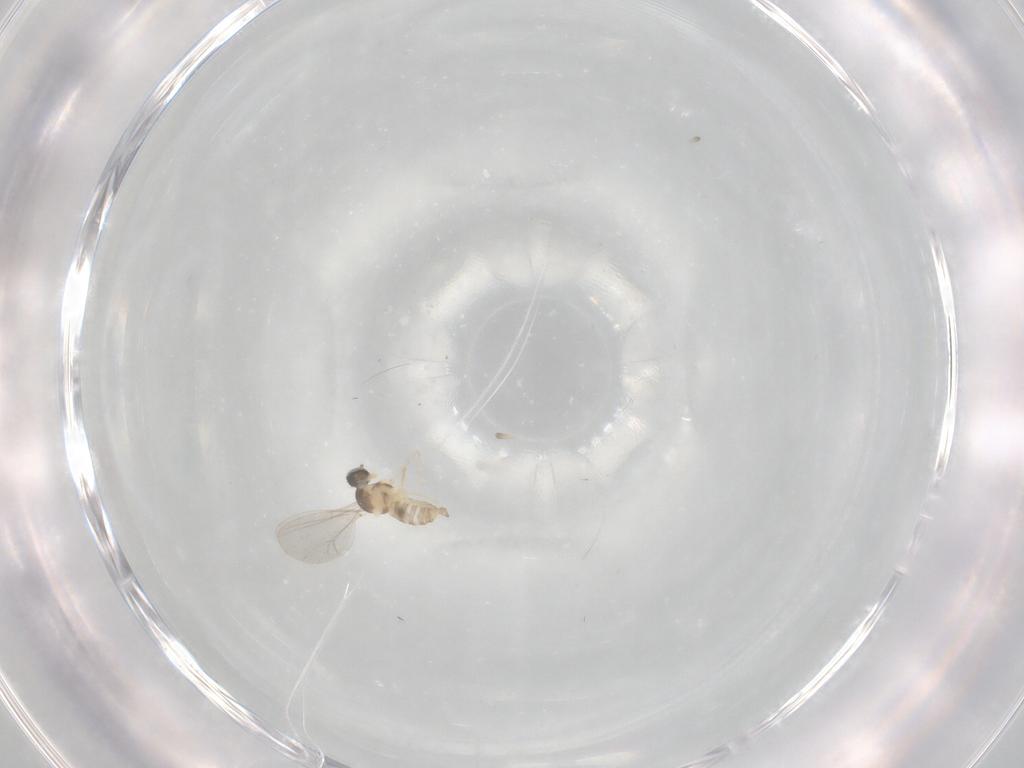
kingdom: Animalia
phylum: Arthropoda
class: Insecta
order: Diptera
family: Cecidomyiidae
